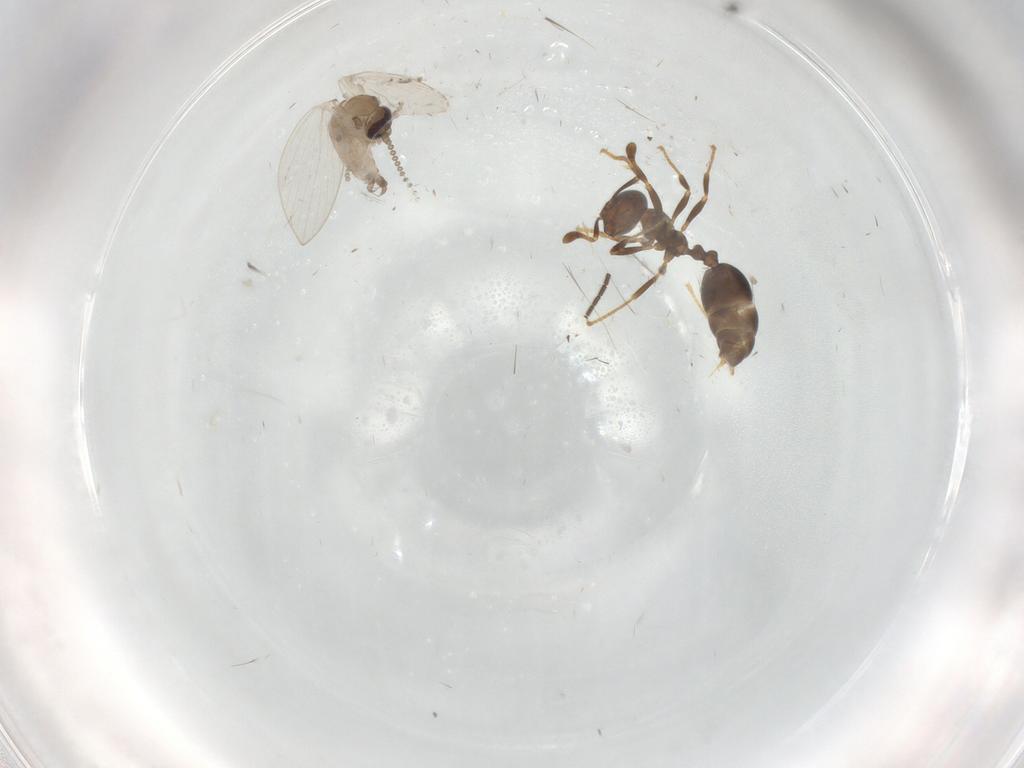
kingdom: Animalia
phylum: Arthropoda
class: Insecta
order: Diptera
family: Psychodidae
